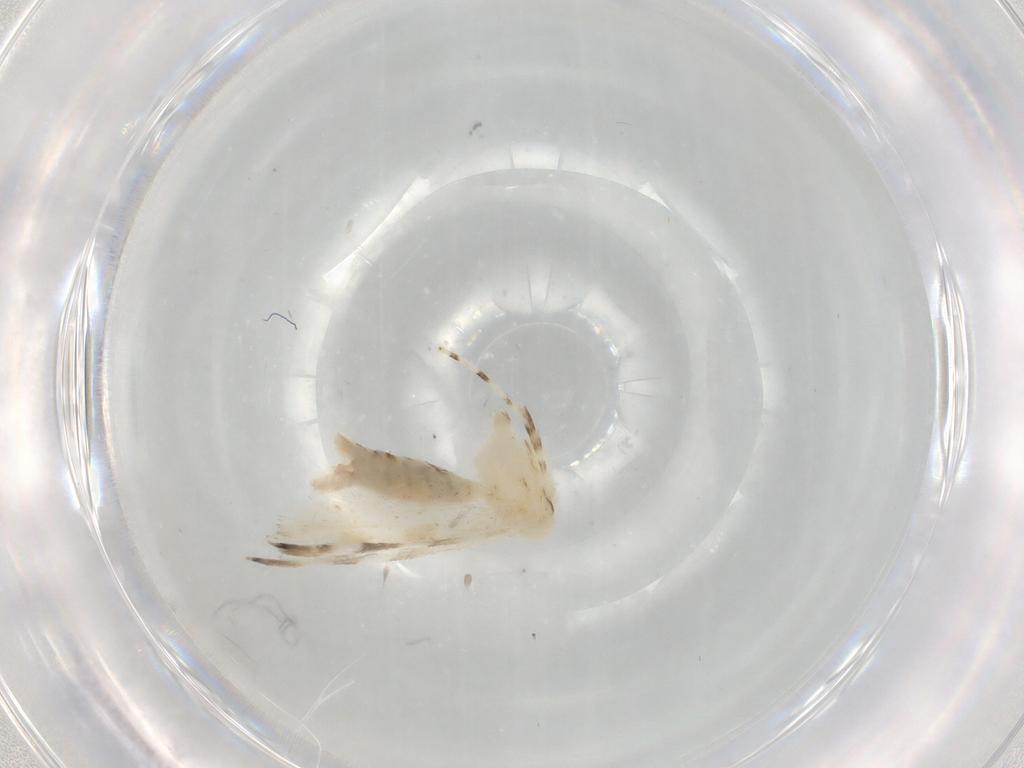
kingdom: Animalia
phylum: Arthropoda
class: Insecta
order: Lepidoptera
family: Gracillariidae
